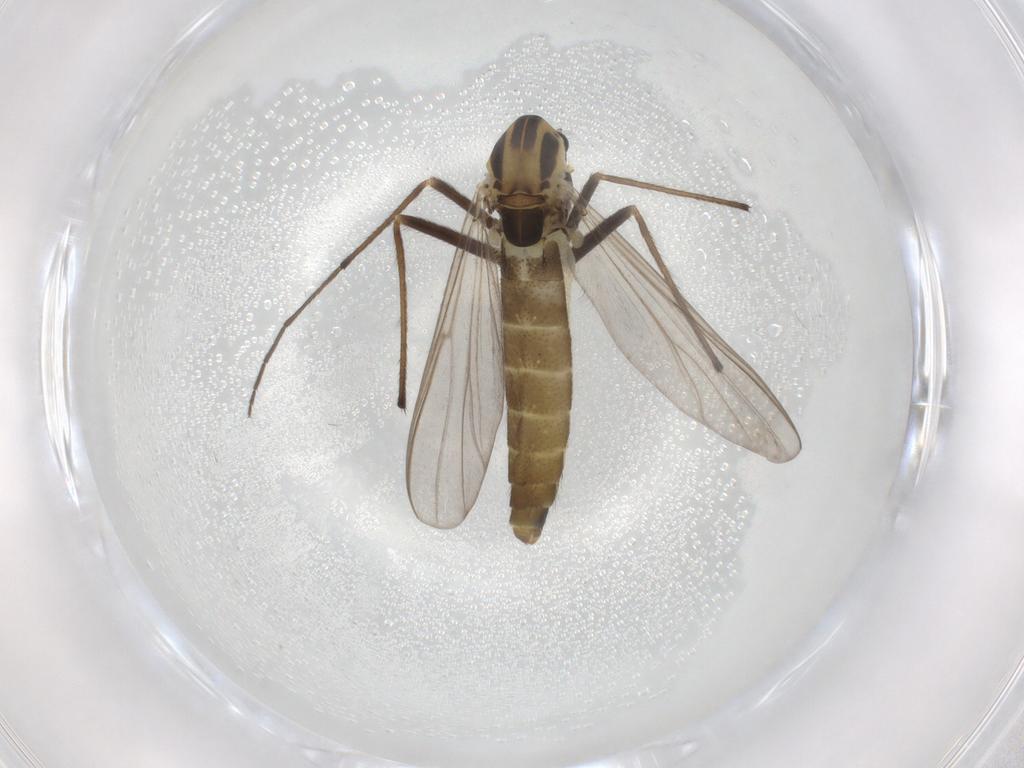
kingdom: Animalia
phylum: Arthropoda
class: Insecta
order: Diptera
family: Chironomidae
